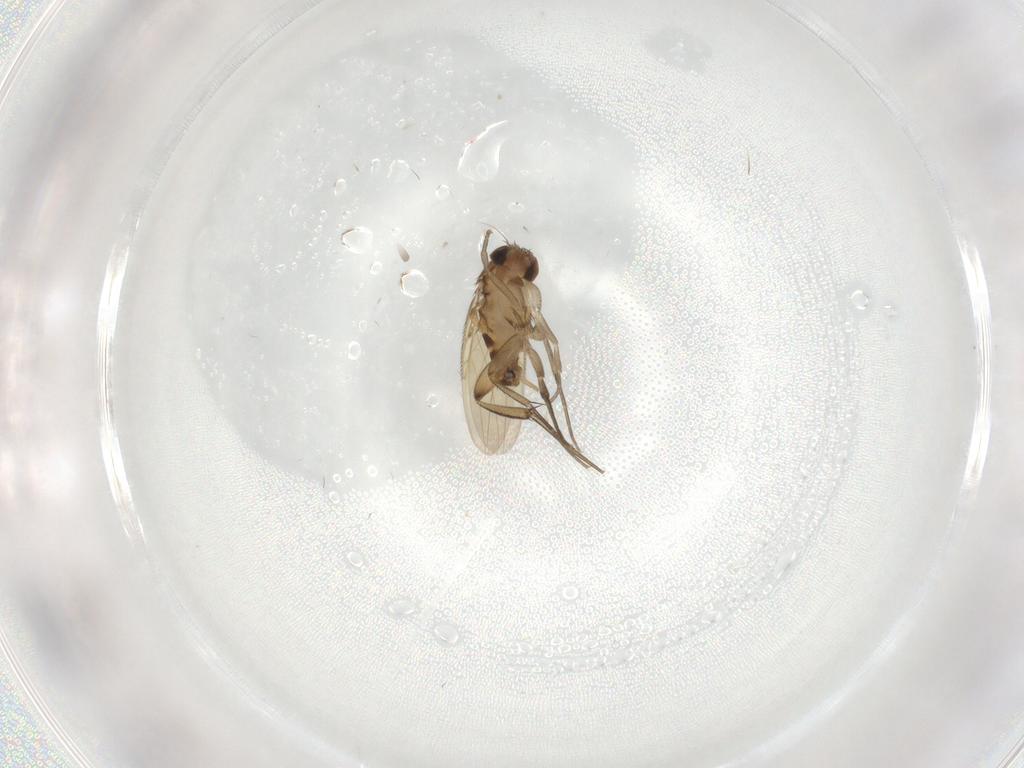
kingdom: Animalia
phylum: Arthropoda
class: Insecta
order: Diptera
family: Phoridae
